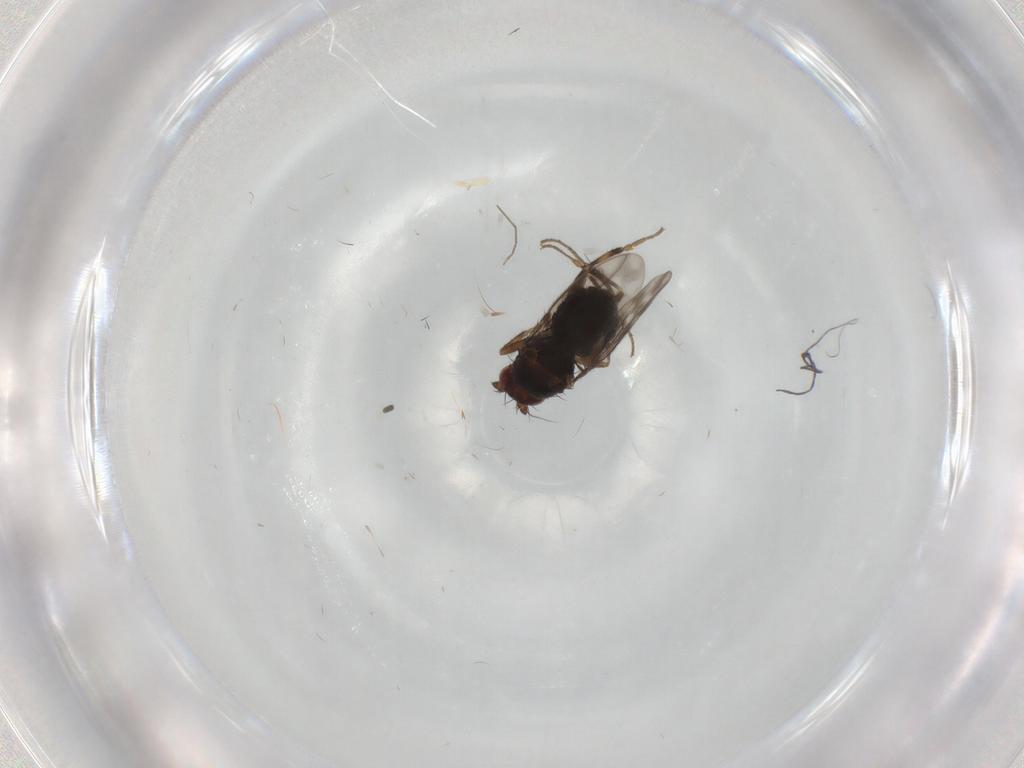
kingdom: Animalia
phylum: Arthropoda
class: Insecta
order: Diptera
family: Sphaeroceridae
